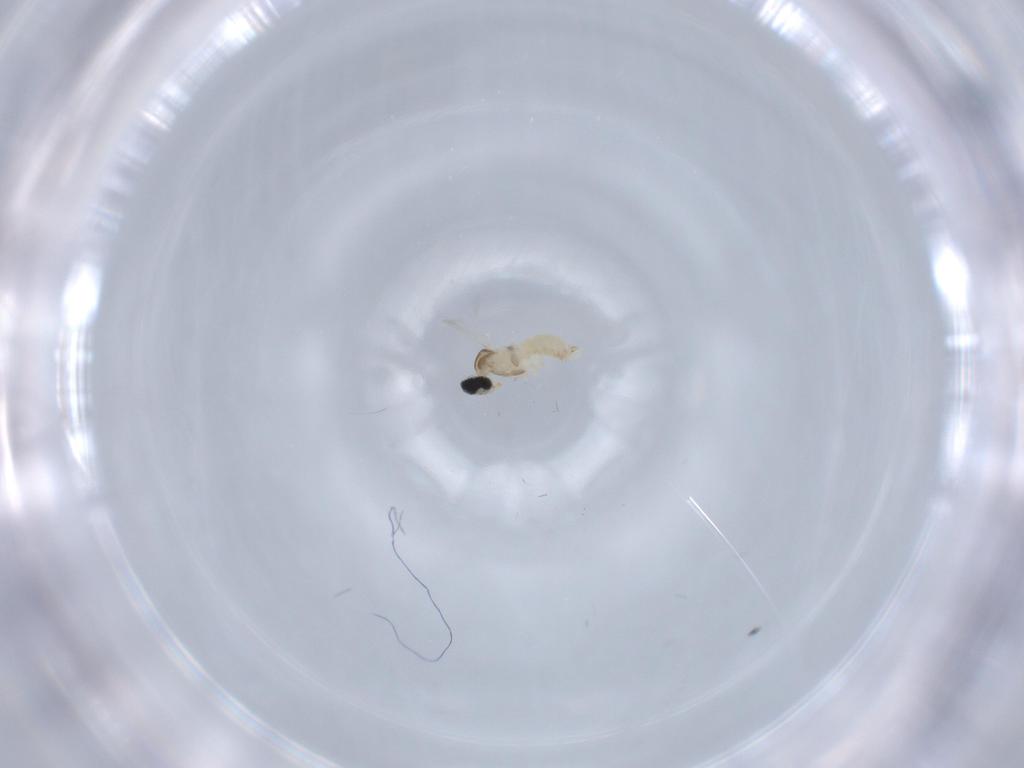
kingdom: Animalia
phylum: Arthropoda
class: Insecta
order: Diptera
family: Cecidomyiidae
